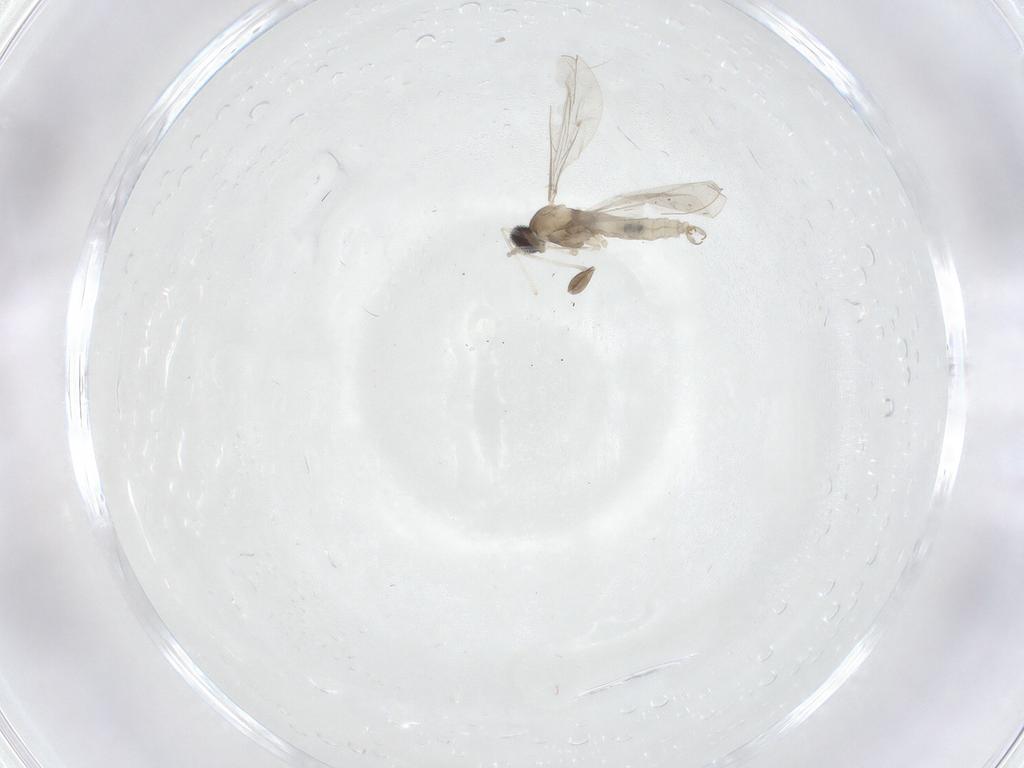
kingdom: Animalia
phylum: Arthropoda
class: Insecta
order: Diptera
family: Sciaridae
